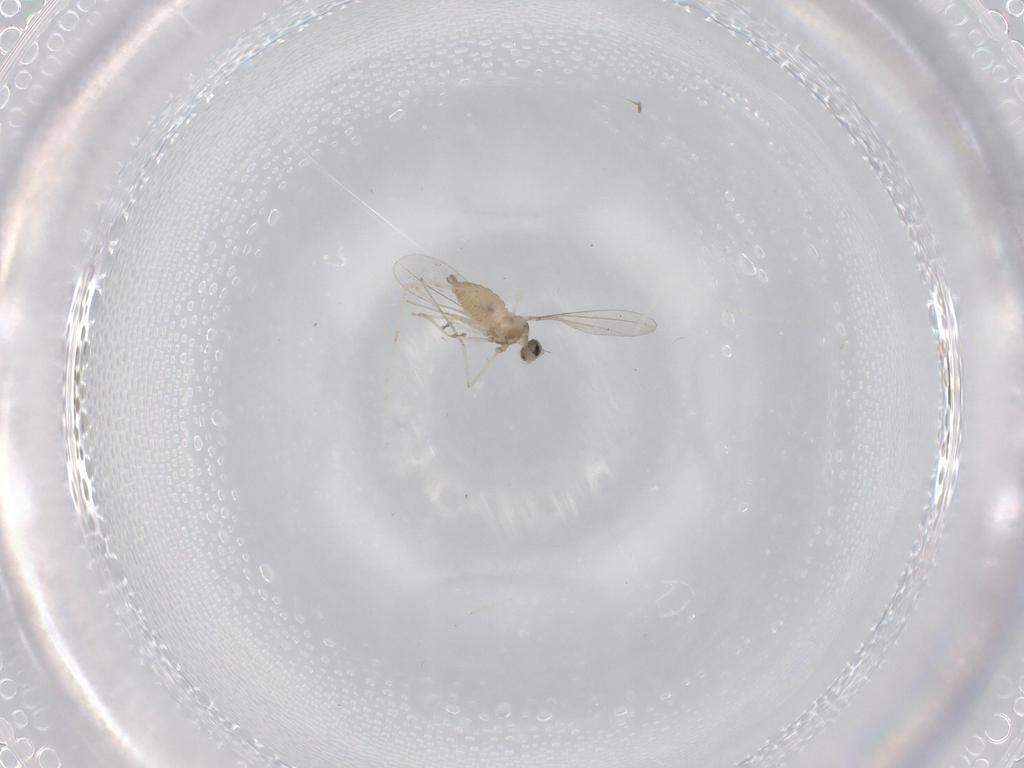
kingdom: Animalia
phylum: Arthropoda
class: Insecta
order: Diptera
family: Cecidomyiidae
